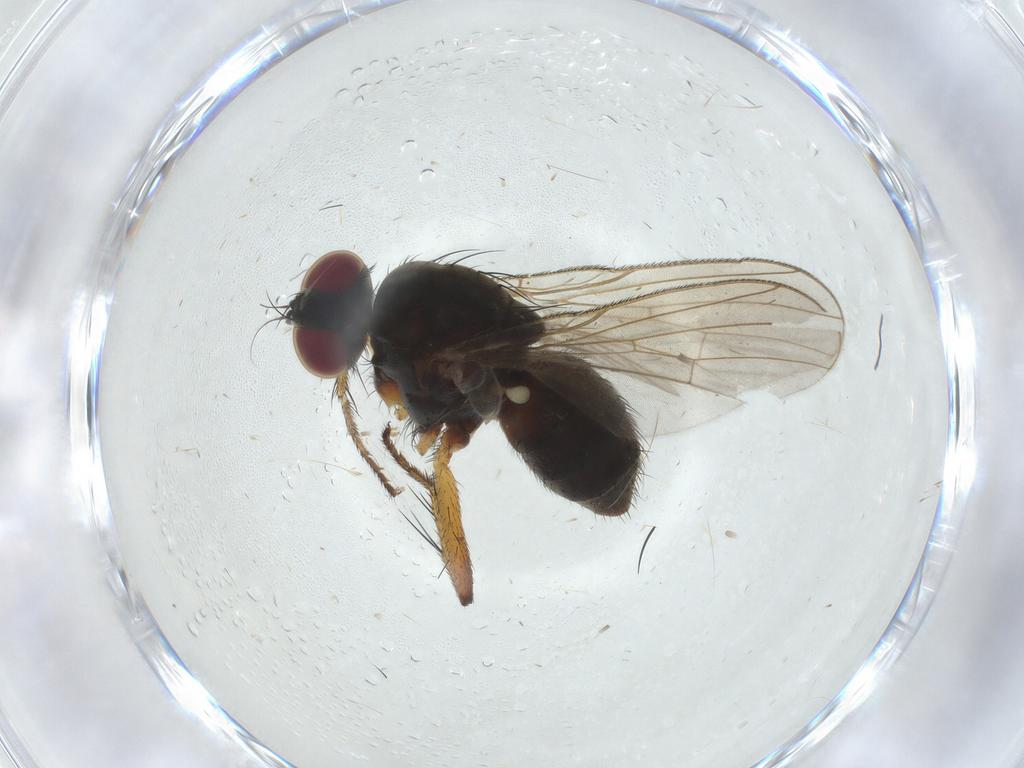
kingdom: Animalia
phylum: Arthropoda
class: Insecta
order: Diptera
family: Muscidae
